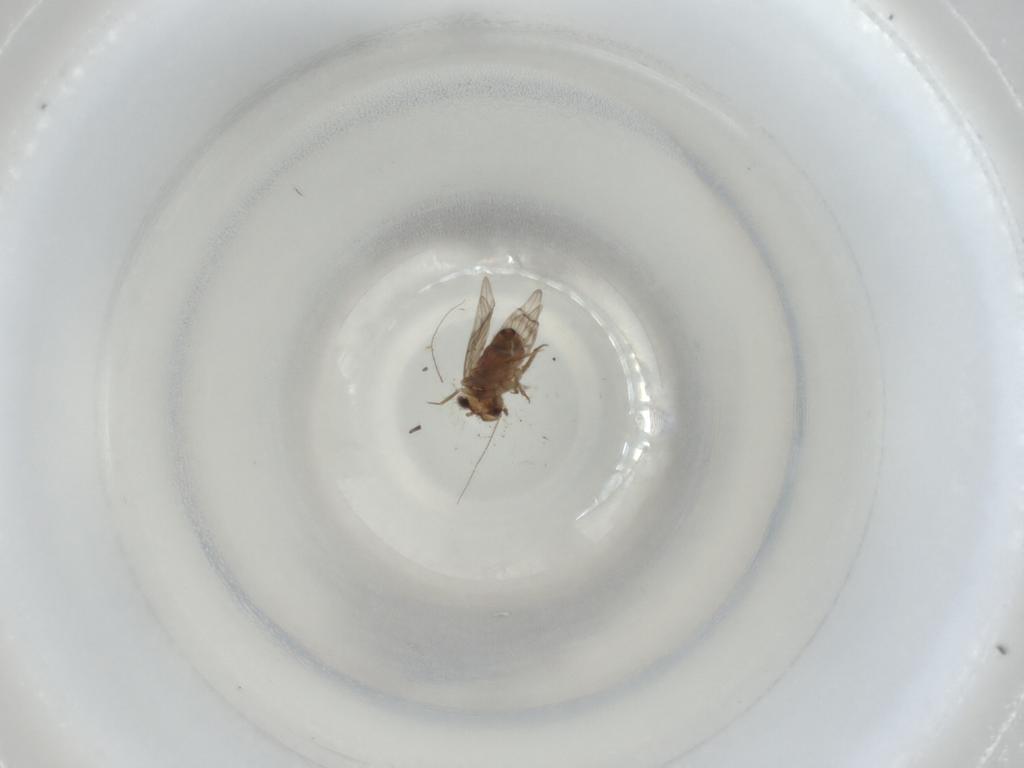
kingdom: Animalia
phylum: Arthropoda
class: Insecta
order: Psocodea
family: Lepidopsocidae
